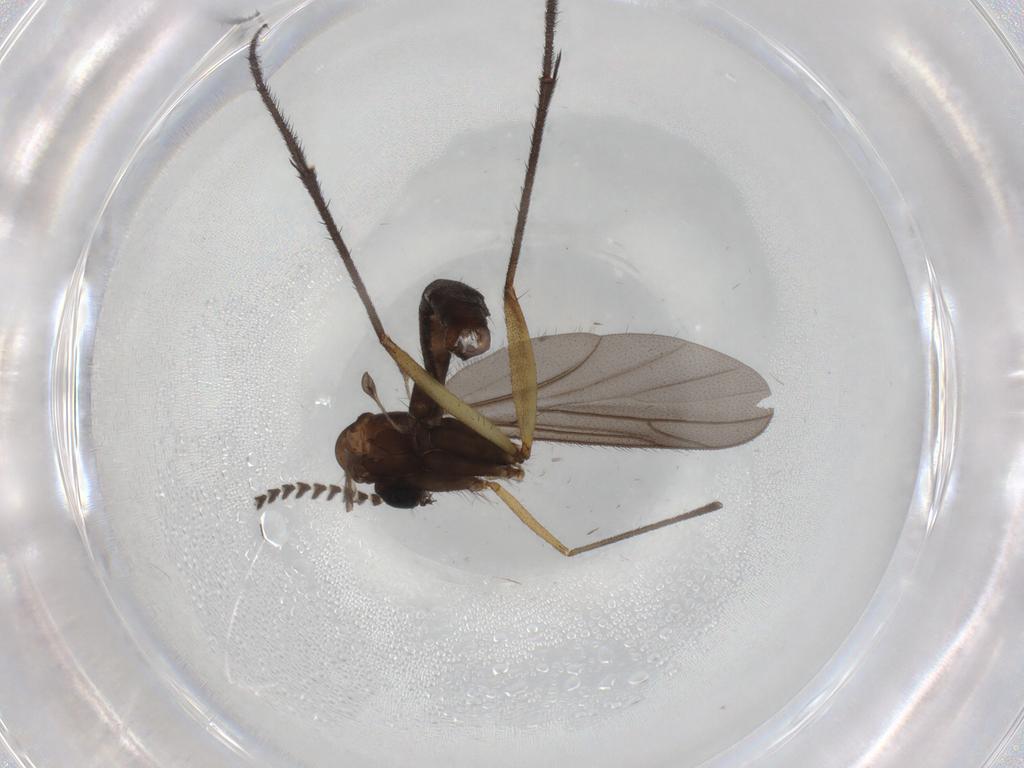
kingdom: Animalia
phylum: Arthropoda
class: Insecta
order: Diptera
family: Chironomidae
